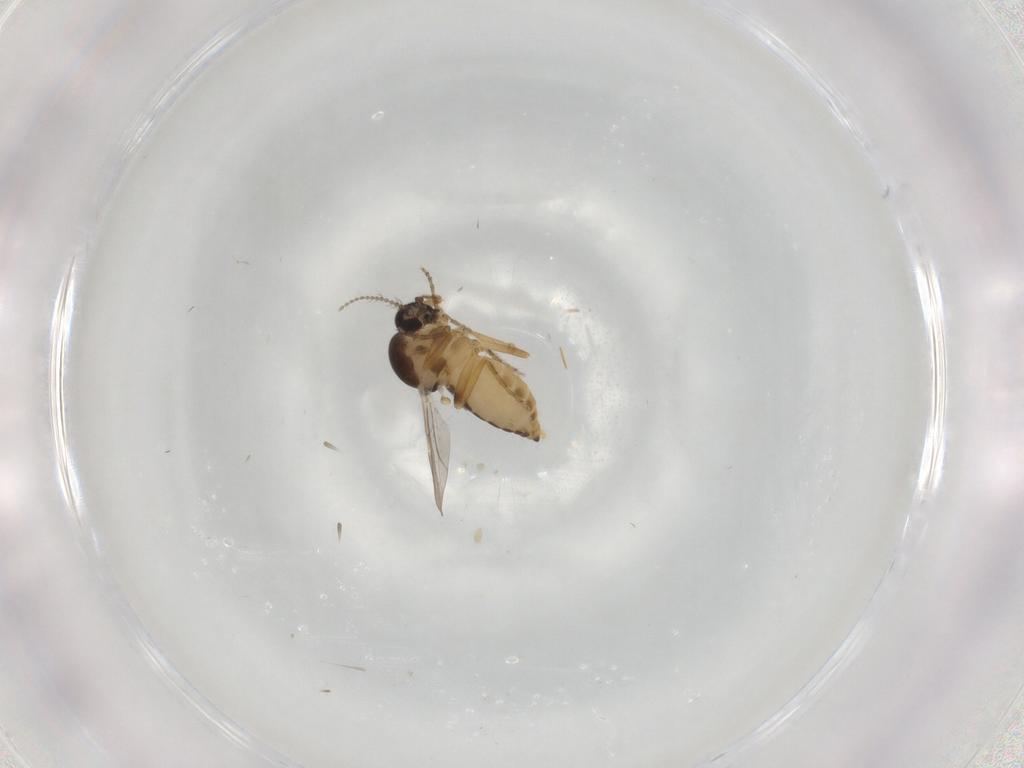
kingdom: Animalia
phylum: Arthropoda
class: Insecta
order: Diptera
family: Ceratopogonidae
